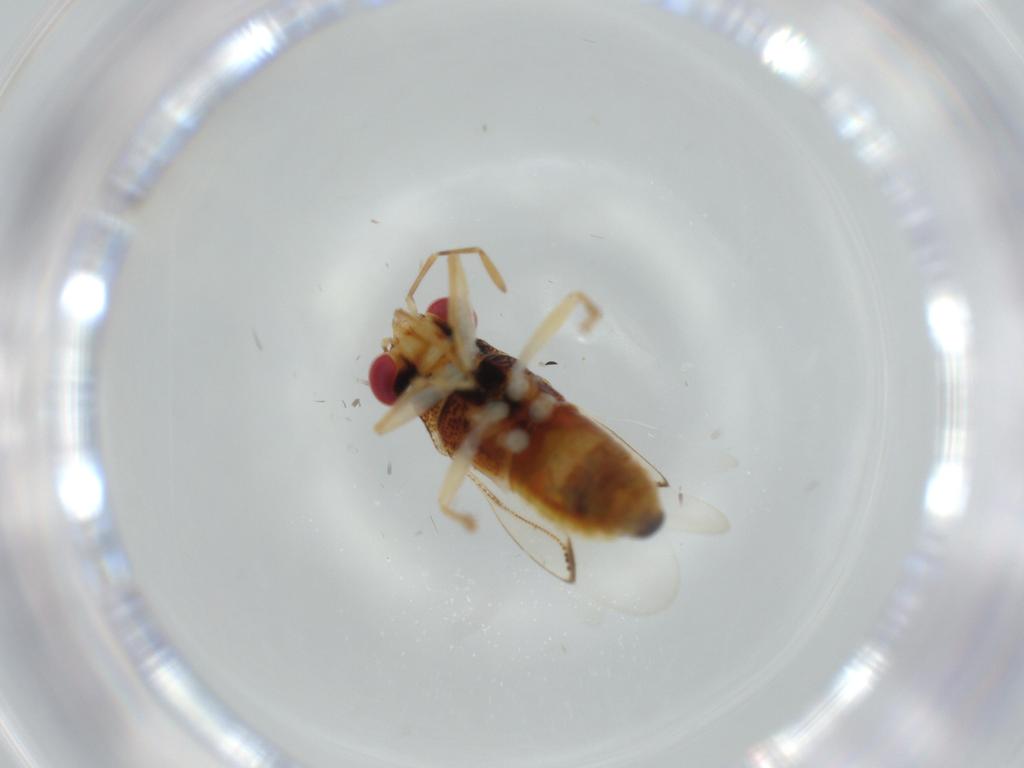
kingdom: Animalia
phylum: Arthropoda
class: Insecta
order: Hemiptera
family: Geocoridae
